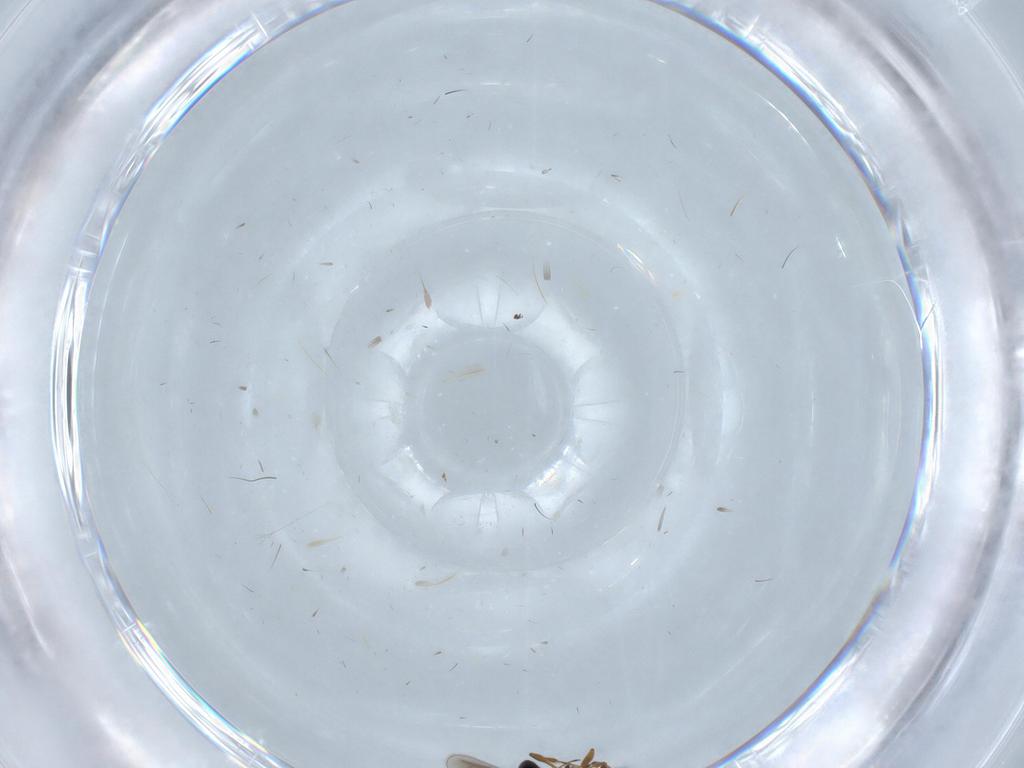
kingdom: Animalia
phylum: Arthropoda
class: Insecta
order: Hymenoptera
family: Platygastridae
